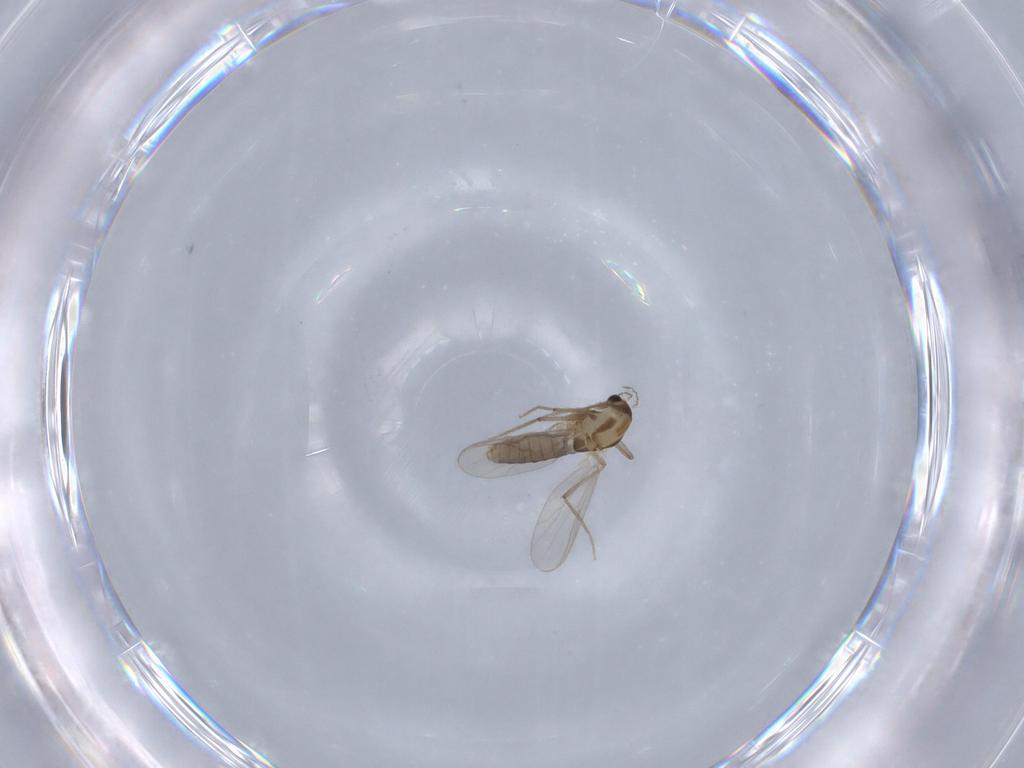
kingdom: Animalia
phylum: Arthropoda
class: Insecta
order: Diptera
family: Chironomidae
